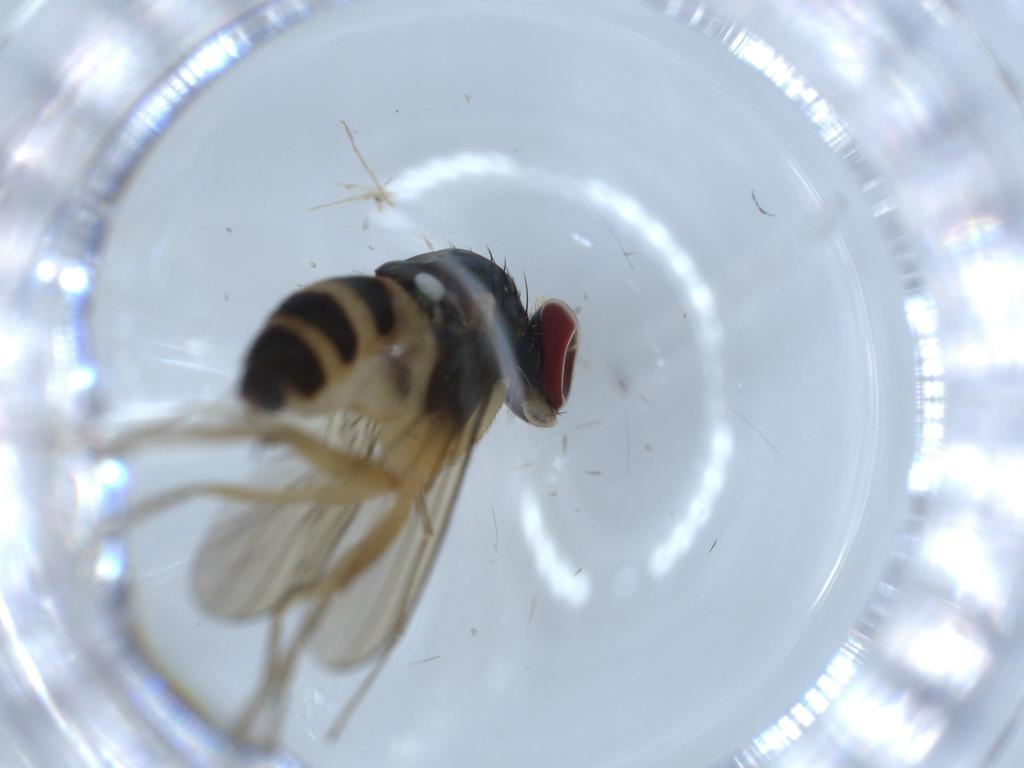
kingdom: Animalia
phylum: Arthropoda
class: Insecta
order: Diptera
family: Dolichopodidae
